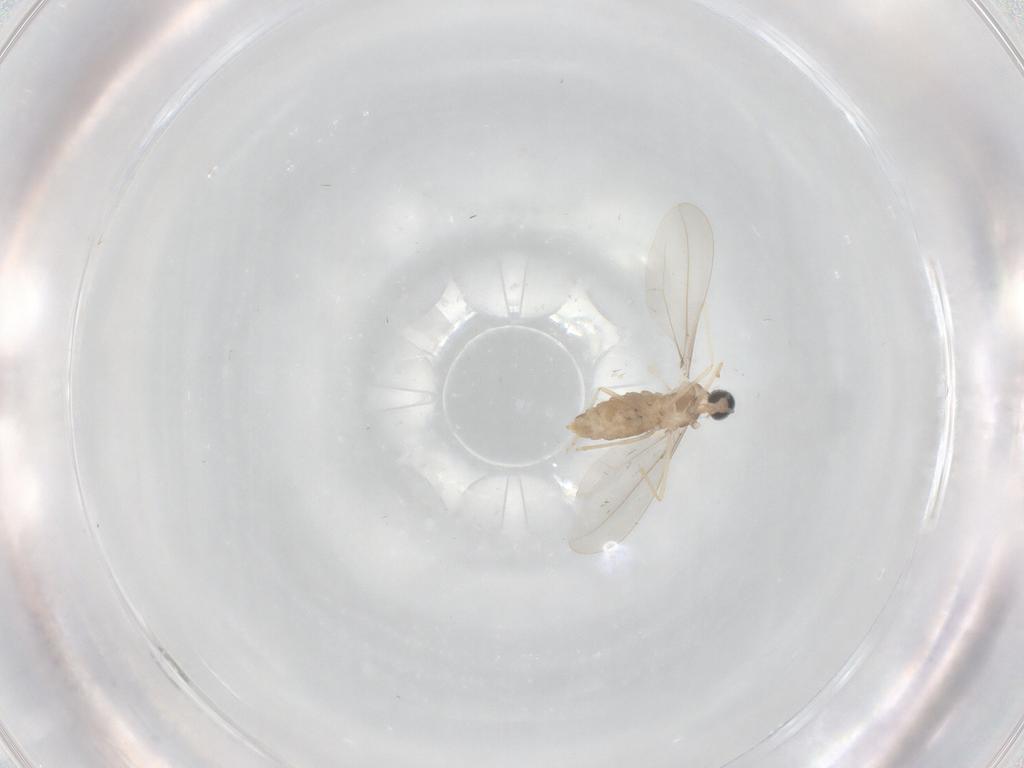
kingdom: Animalia
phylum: Arthropoda
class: Insecta
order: Diptera
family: Cecidomyiidae
